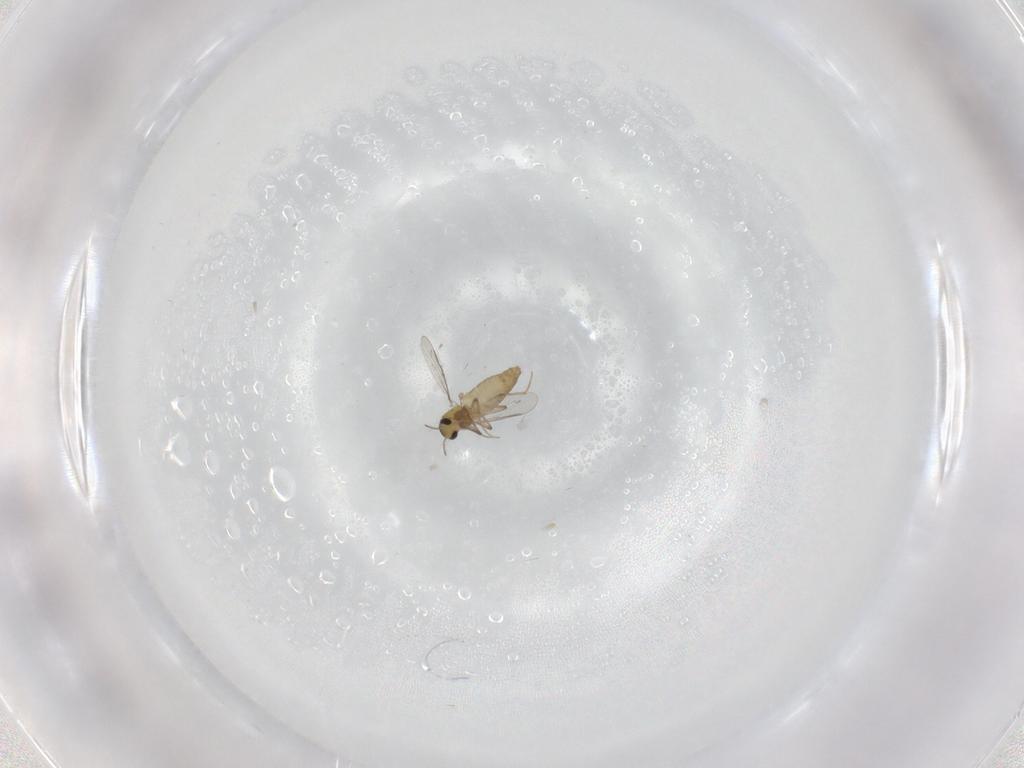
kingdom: Animalia
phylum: Arthropoda
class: Insecta
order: Diptera
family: Chironomidae
